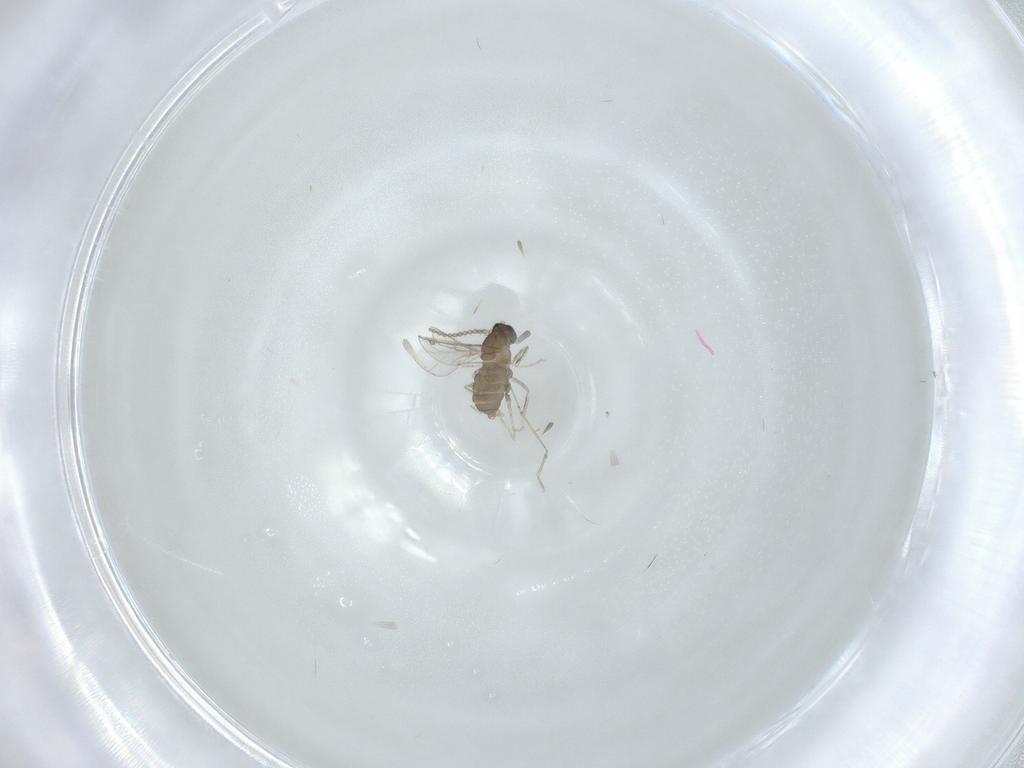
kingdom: Animalia
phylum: Arthropoda
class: Insecta
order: Diptera
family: Cecidomyiidae
